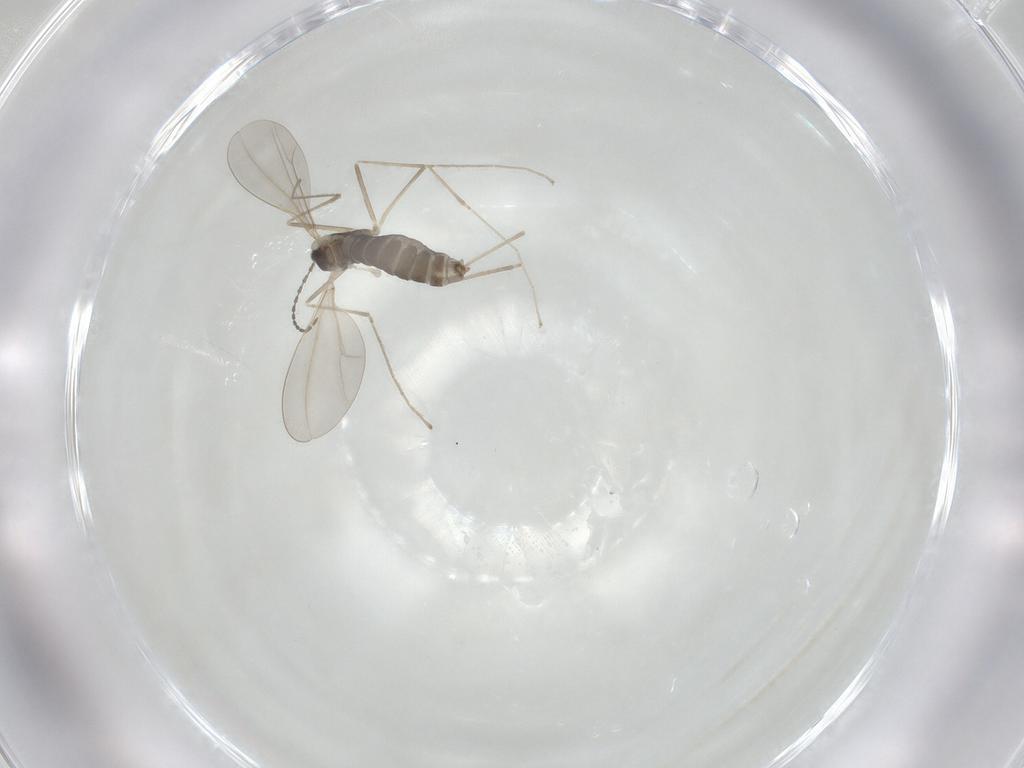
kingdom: Animalia
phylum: Arthropoda
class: Insecta
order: Diptera
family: Cecidomyiidae
